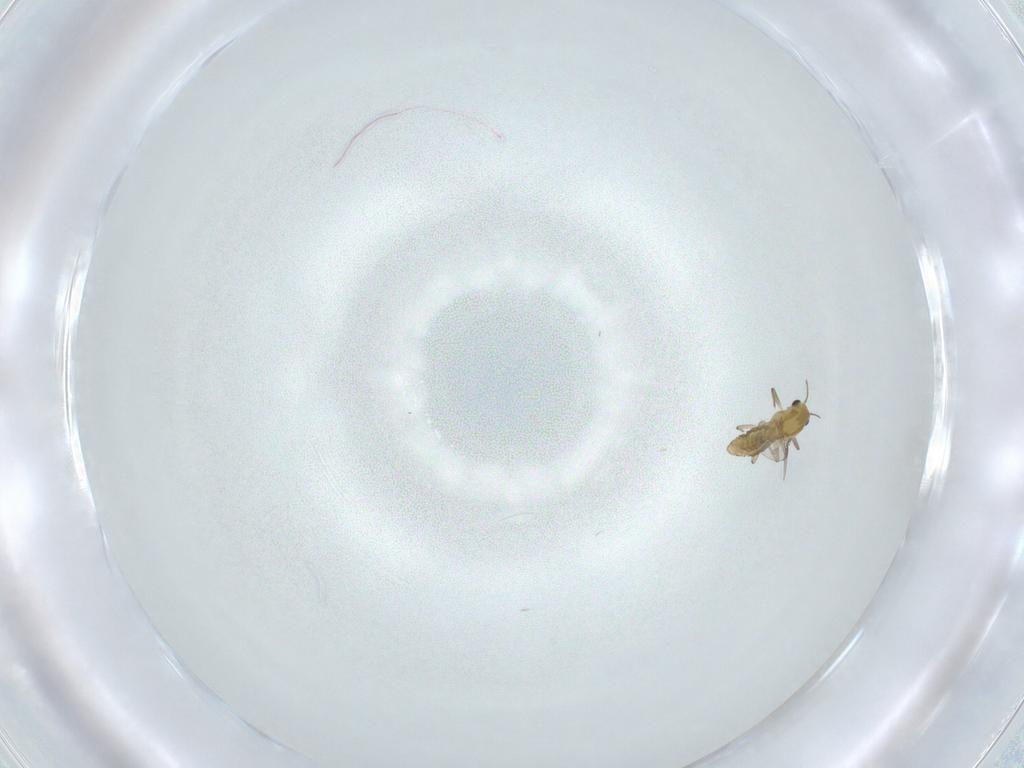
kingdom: Animalia
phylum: Arthropoda
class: Insecta
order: Diptera
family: Chironomidae
